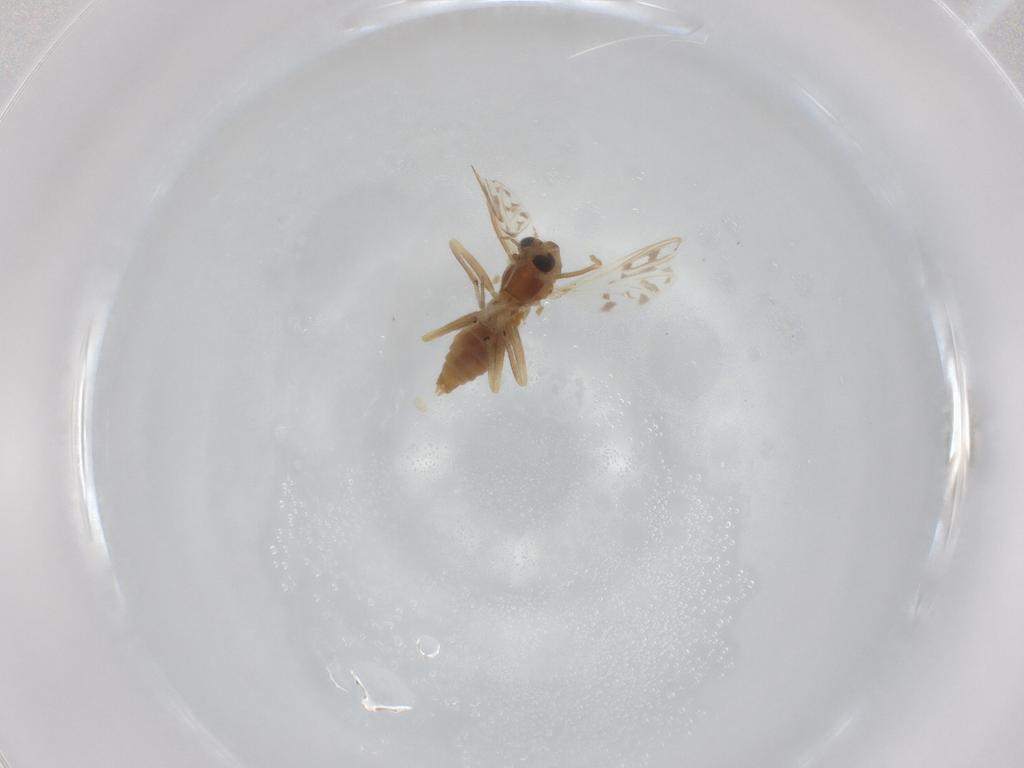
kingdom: Animalia
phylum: Arthropoda
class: Insecta
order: Diptera
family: Chironomidae
